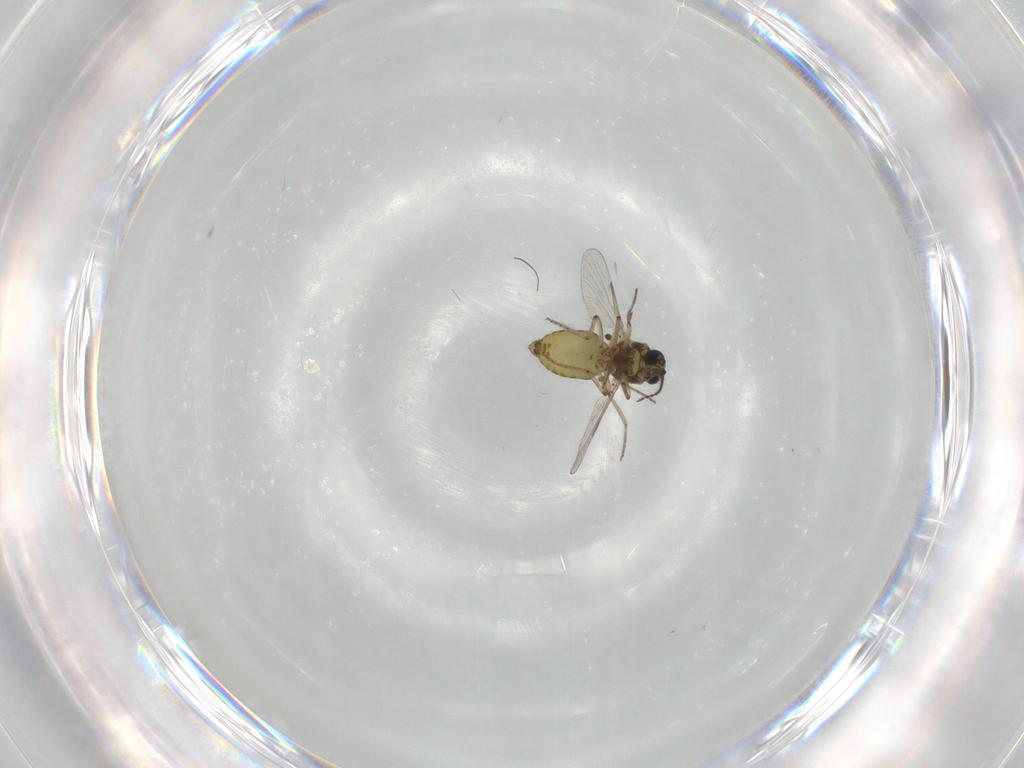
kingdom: Animalia
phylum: Arthropoda
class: Insecta
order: Diptera
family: Ceratopogonidae
